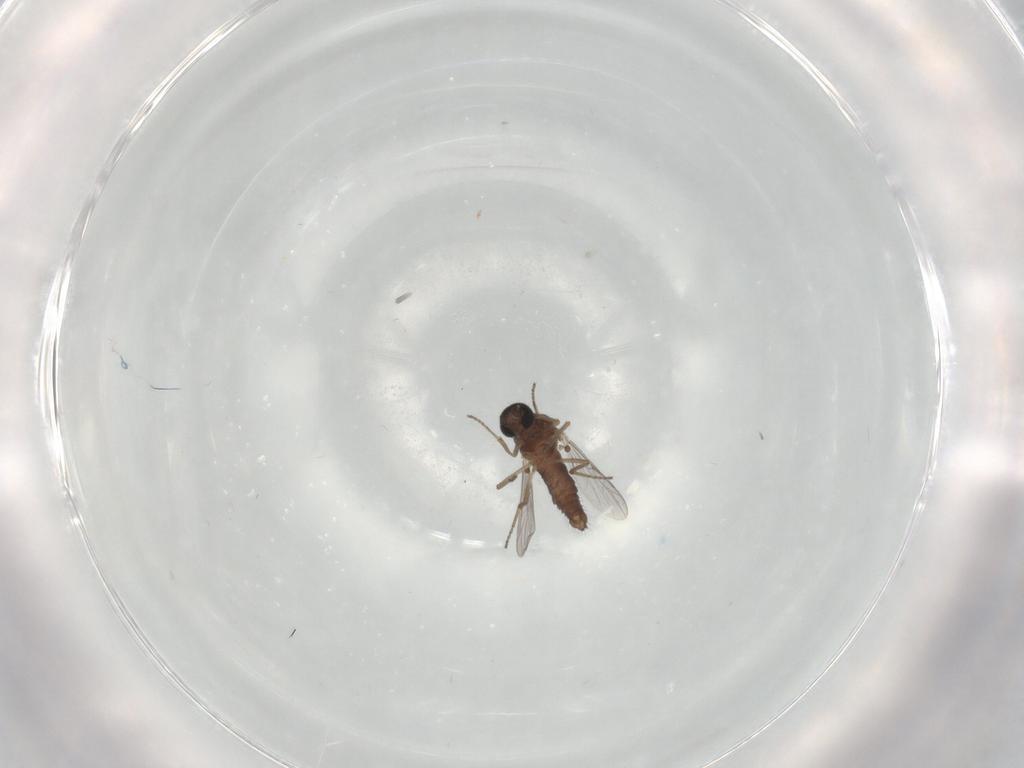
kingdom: Animalia
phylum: Arthropoda
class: Insecta
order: Diptera
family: Ceratopogonidae
